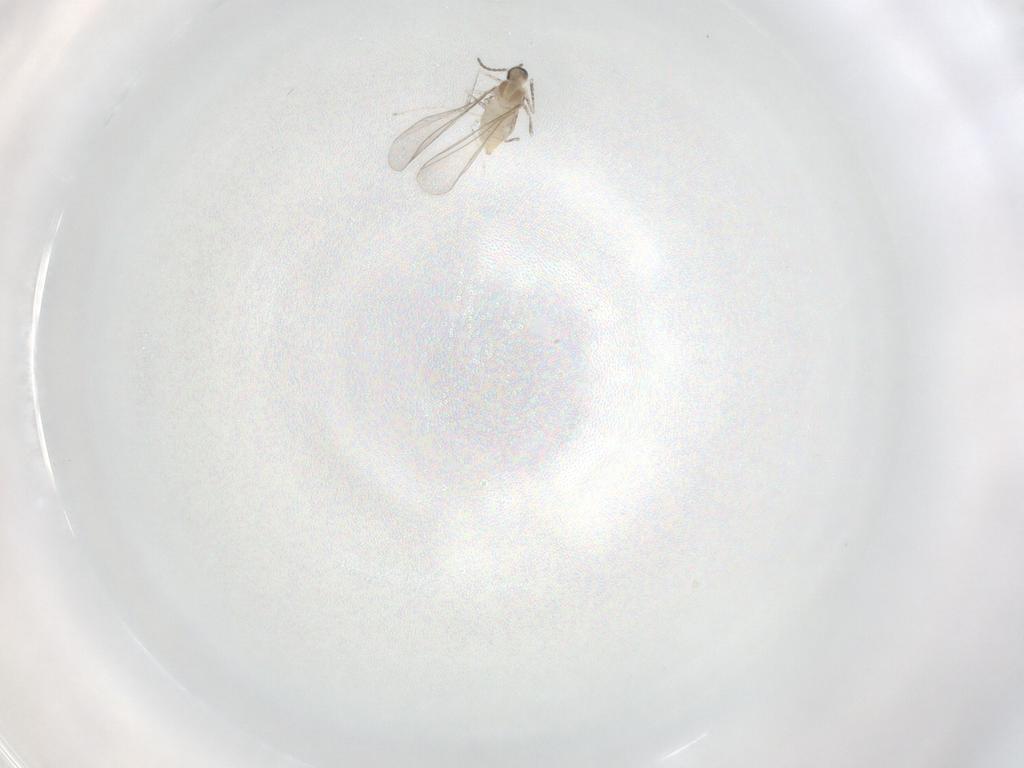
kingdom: Animalia
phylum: Arthropoda
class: Insecta
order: Diptera
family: Cecidomyiidae
